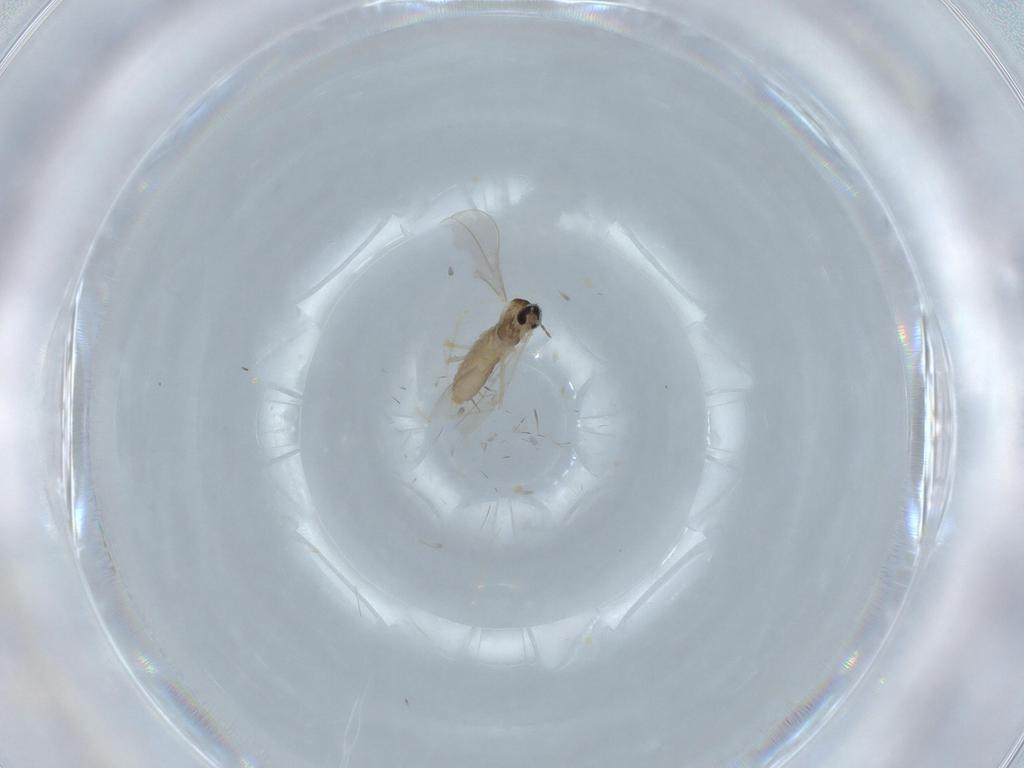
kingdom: Animalia
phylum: Arthropoda
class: Insecta
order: Diptera
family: Cecidomyiidae
